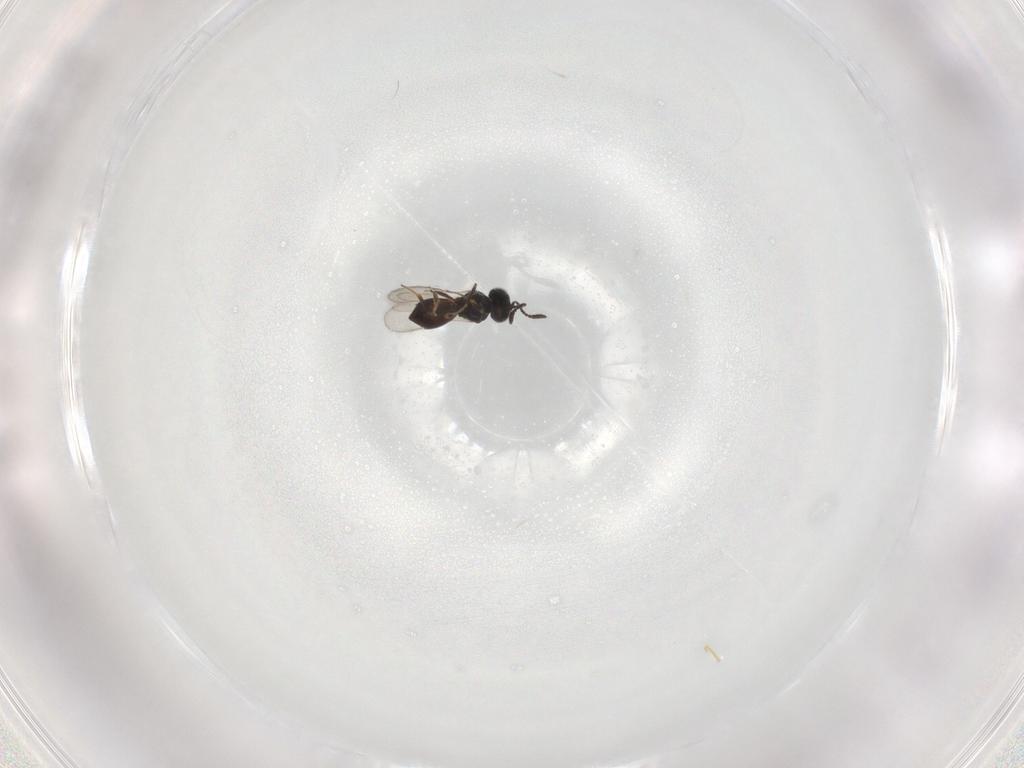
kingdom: Animalia
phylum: Arthropoda
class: Insecta
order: Hymenoptera
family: Scelionidae
